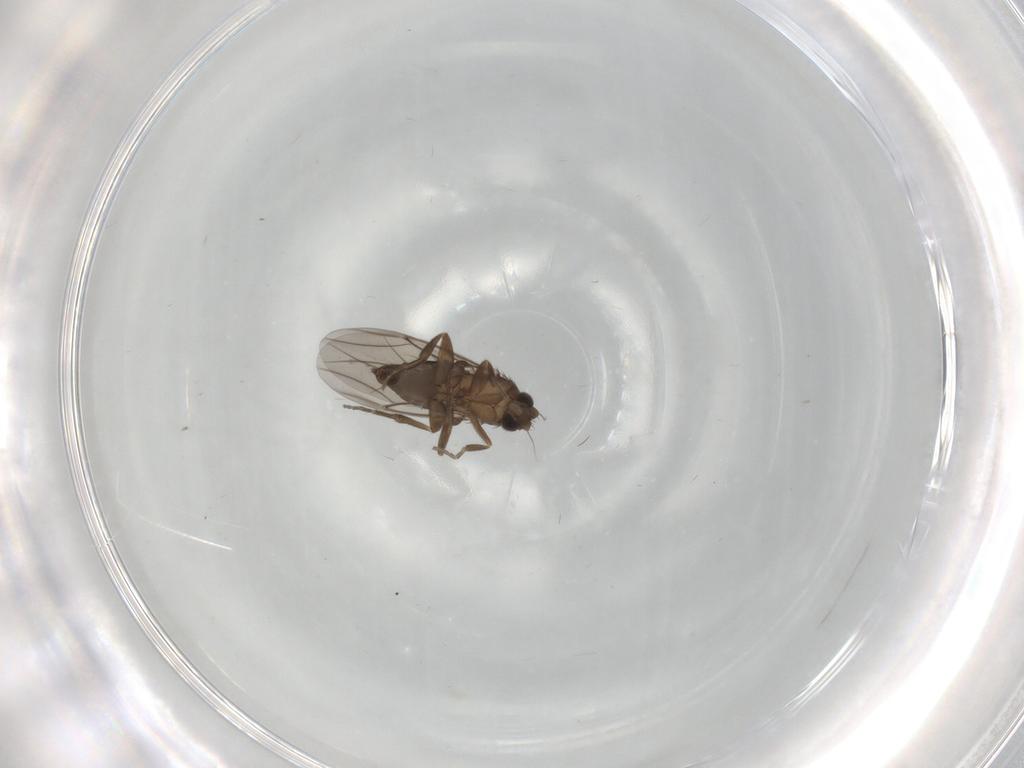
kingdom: Animalia
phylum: Arthropoda
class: Insecta
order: Diptera
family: Phoridae
